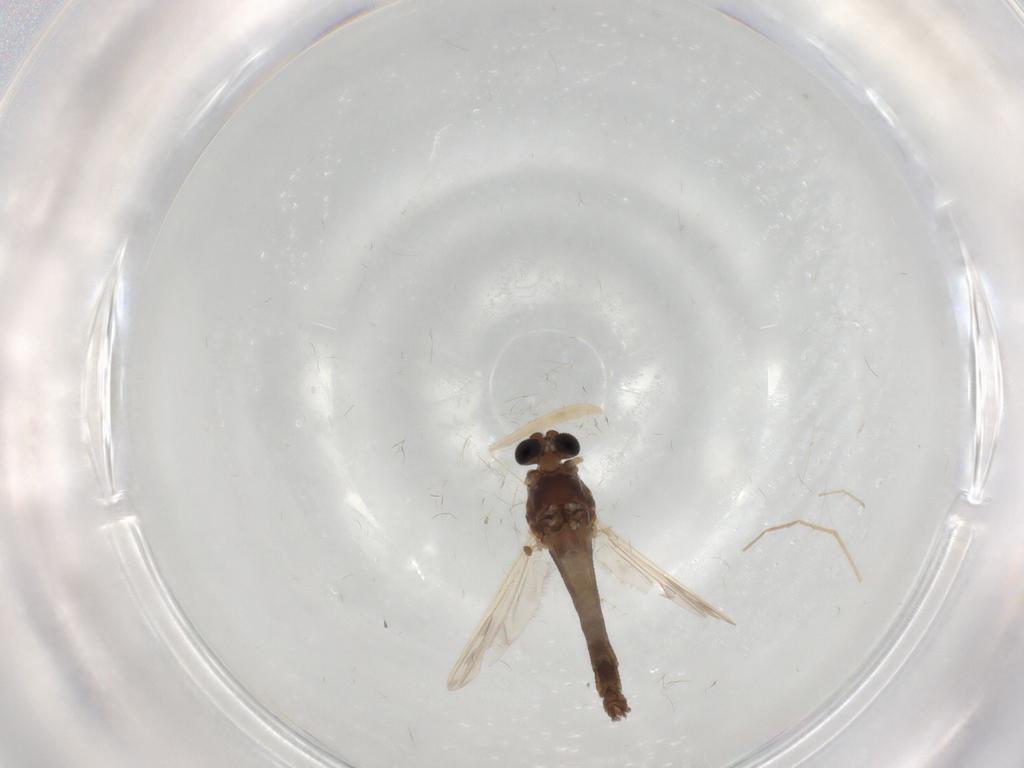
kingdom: Animalia
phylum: Arthropoda
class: Insecta
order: Diptera
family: Chironomidae
